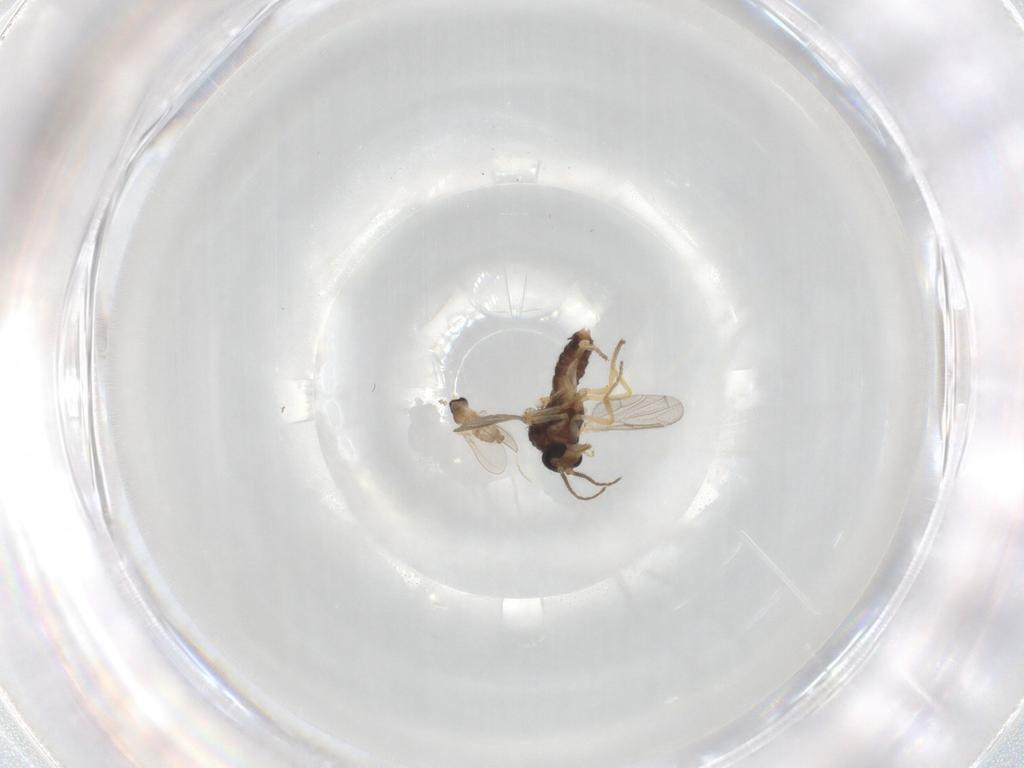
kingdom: Animalia
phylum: Arthropoda
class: Insecta
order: Diptera
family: Ceratopogonidae
